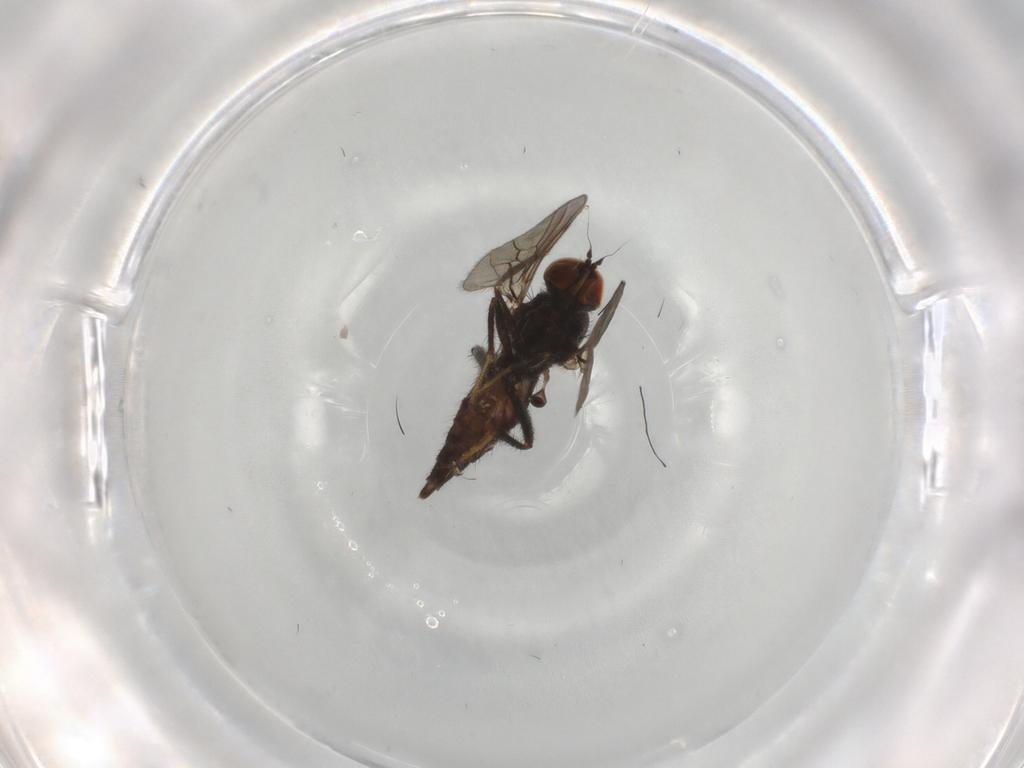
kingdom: Animalia
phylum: Arthropoda
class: Insecta
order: Diptera
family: Hybotidae
